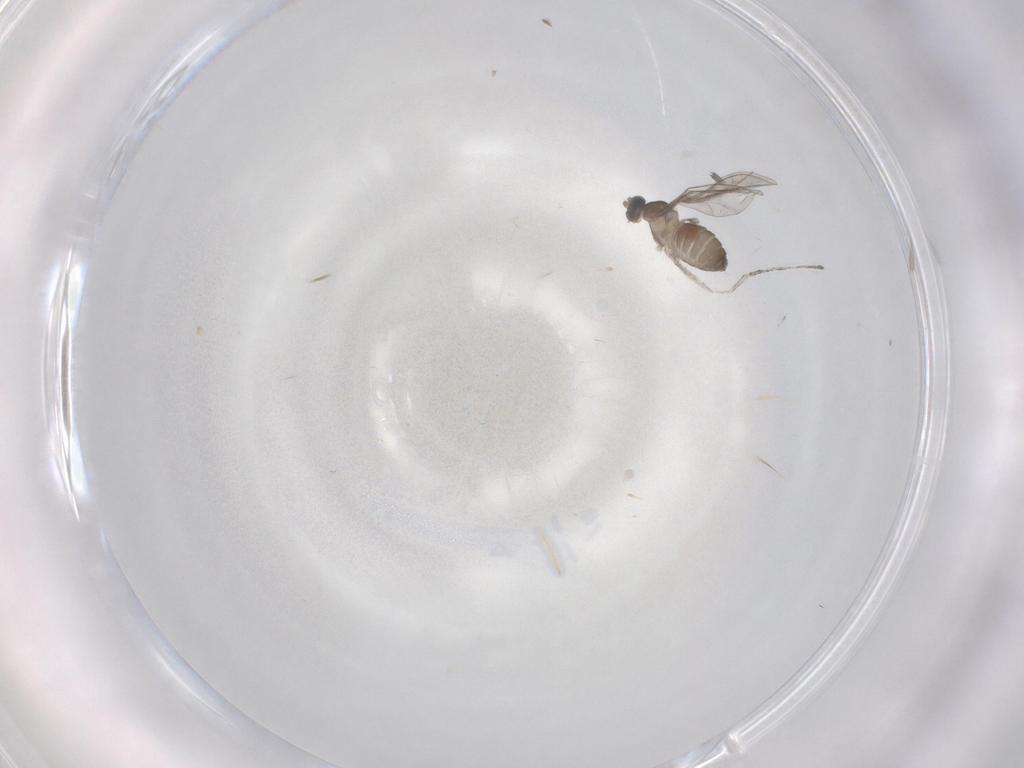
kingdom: Animalia
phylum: Arthropoda
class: Insecta
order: Diptera
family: Cecidomyiidae
